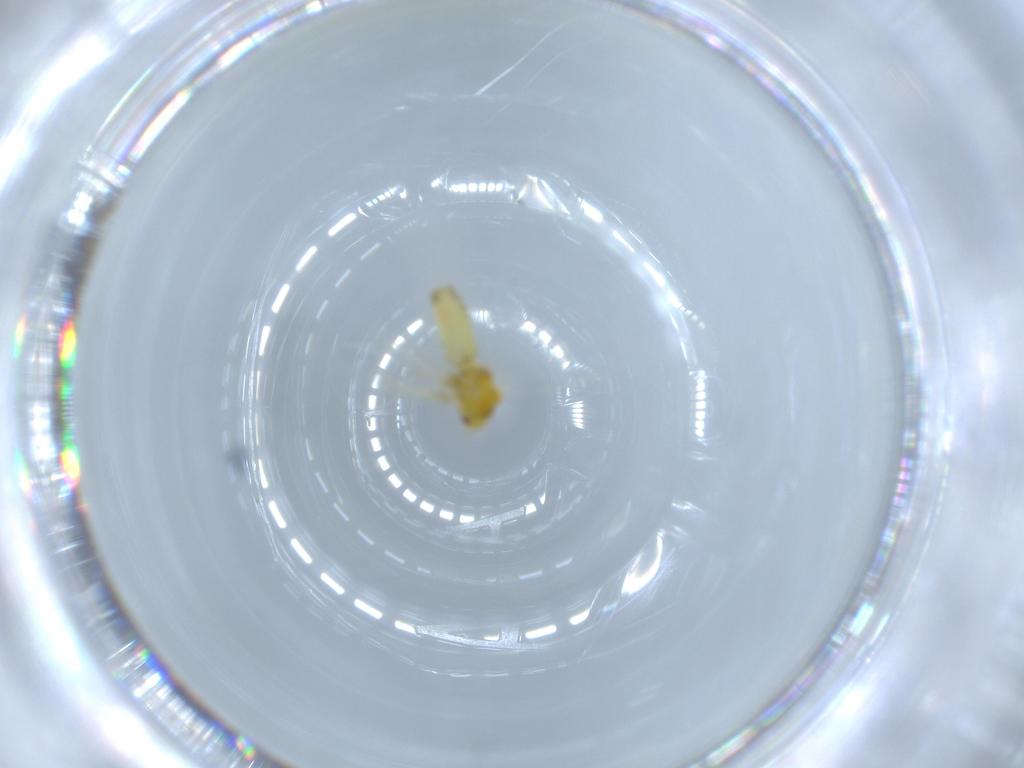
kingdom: Animalia
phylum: Arthropoda
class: Insecta
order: Hemiptera
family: Aleyrodidae
